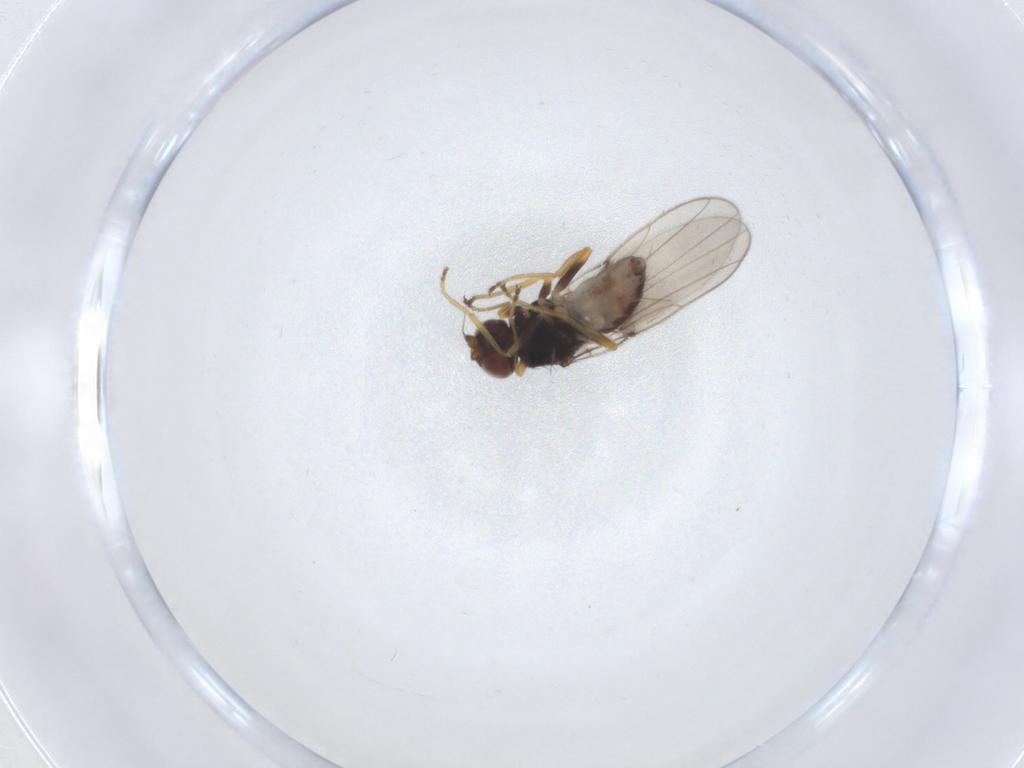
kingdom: Animalia
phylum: Arthropoda
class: Insecta
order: Diptera
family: Chloropidae
